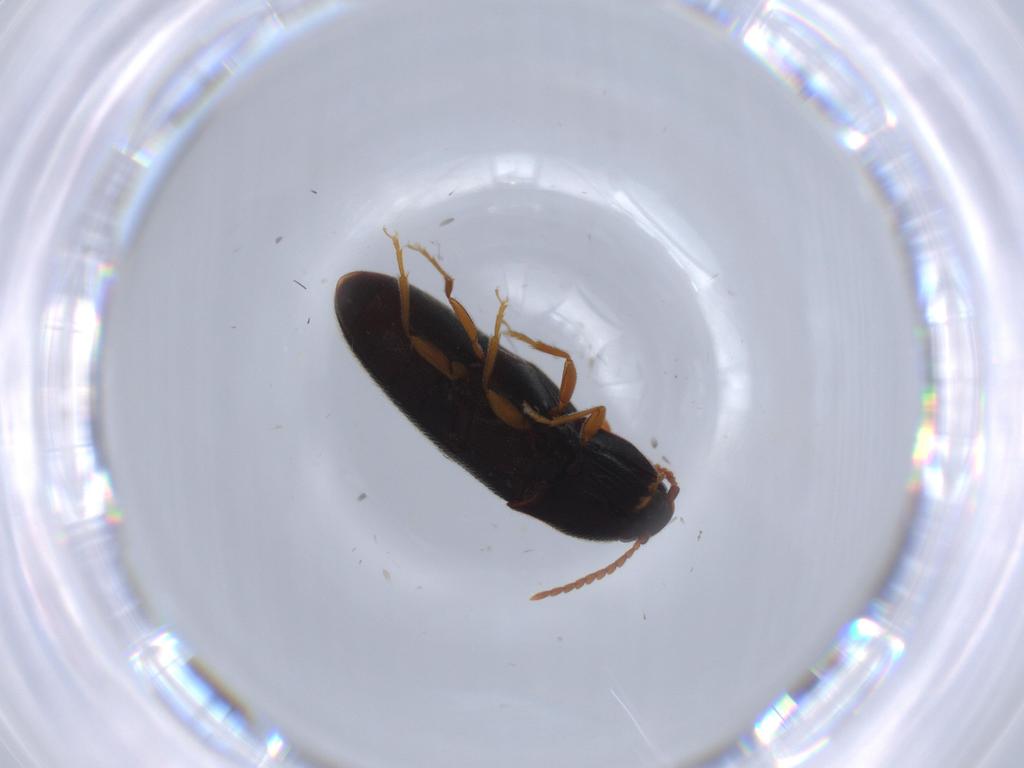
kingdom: Animalia
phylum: Arthropoda
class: Insecta
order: Coleoptera
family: Elateridae
